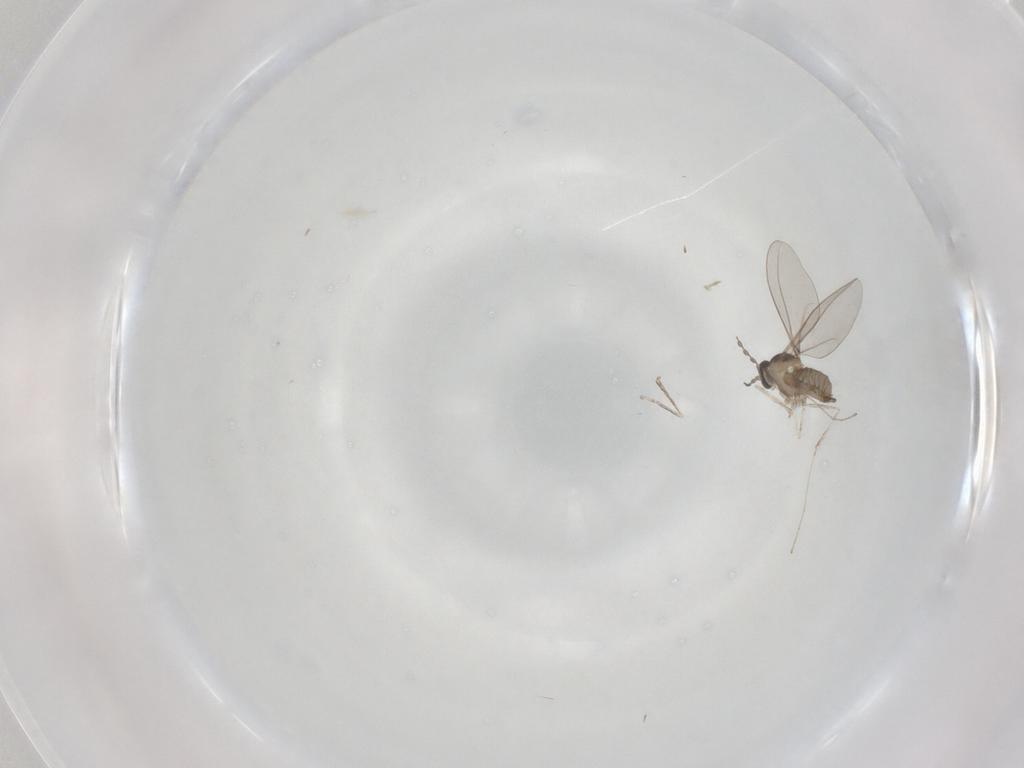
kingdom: Animalia
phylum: Arthropoda
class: Insecta
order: Diptera
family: Cecidomyiidae
